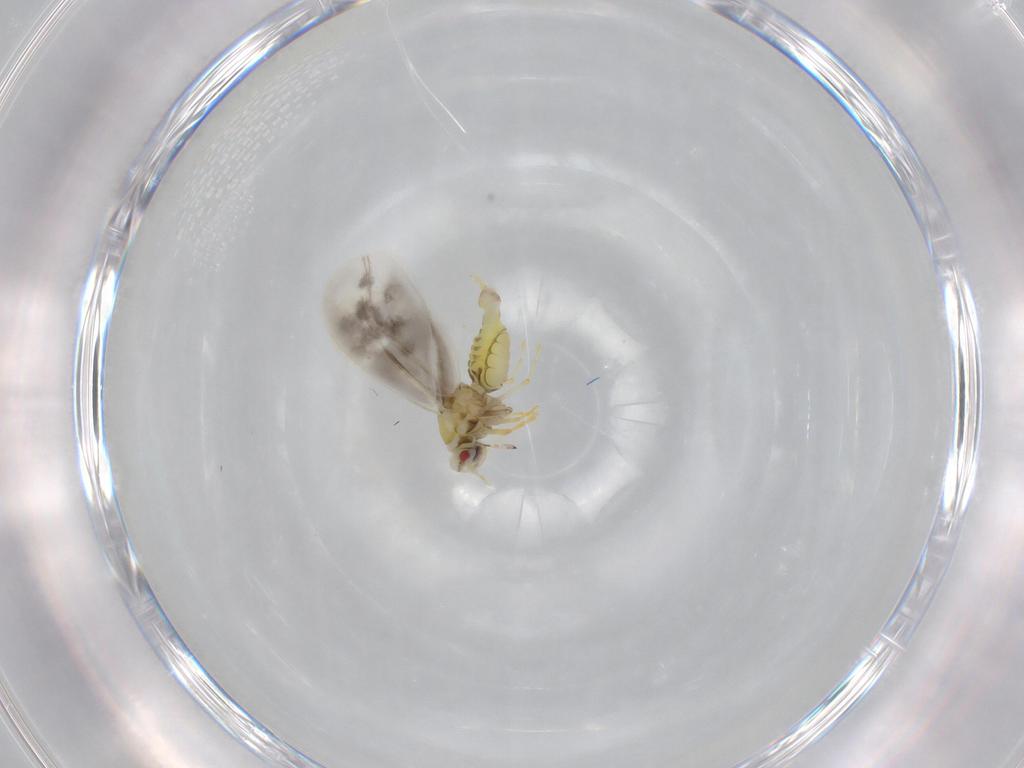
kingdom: Animalia
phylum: Arthropoda
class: Insecta
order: Hemiptera
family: Aleyrodidae
